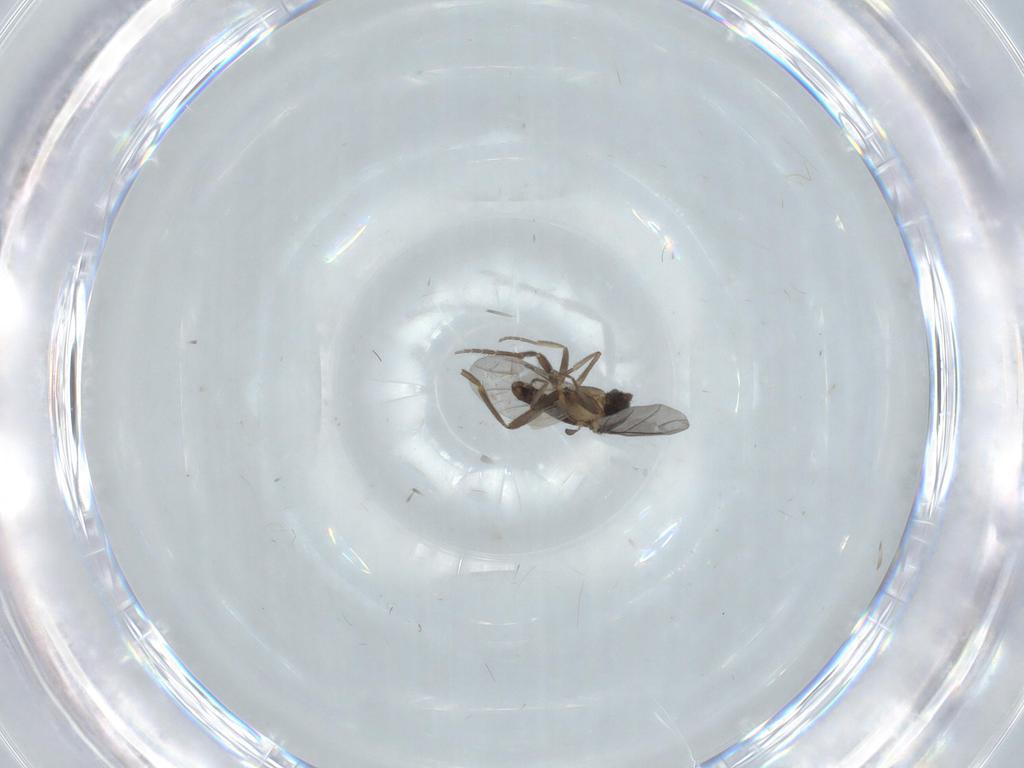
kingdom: Animalia
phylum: Arthropoda
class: Insecta
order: Diptera
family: Phoridae
